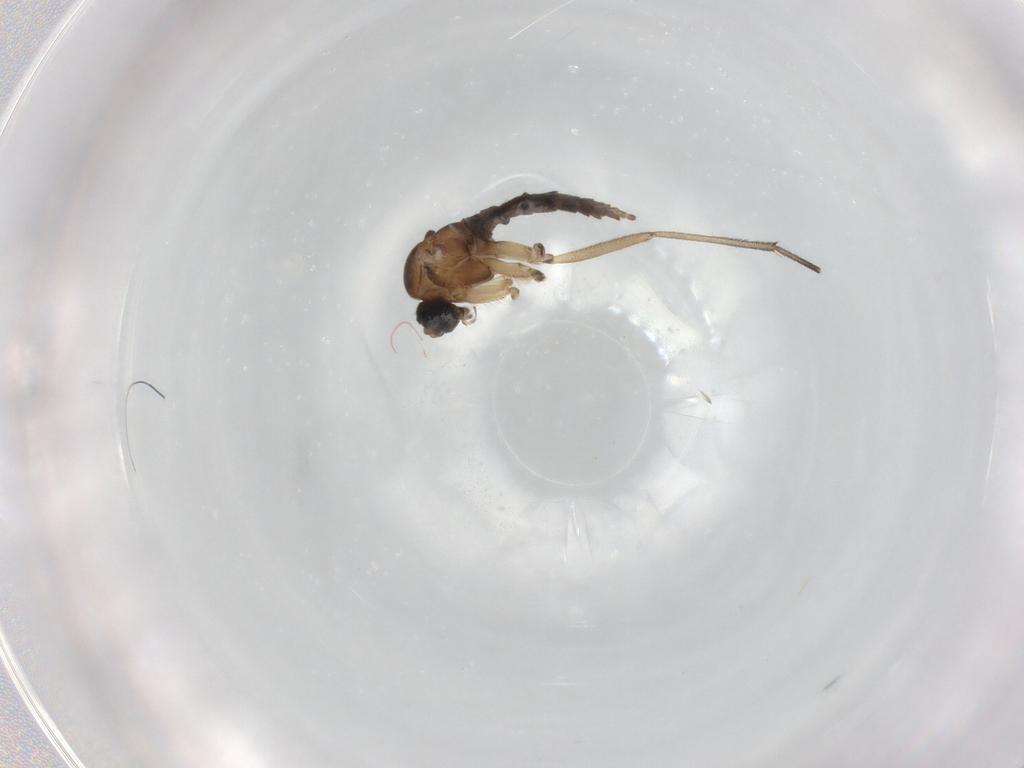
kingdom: Animalia
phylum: Arthropoda
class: Insecta
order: Diptera
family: Sciaridae
